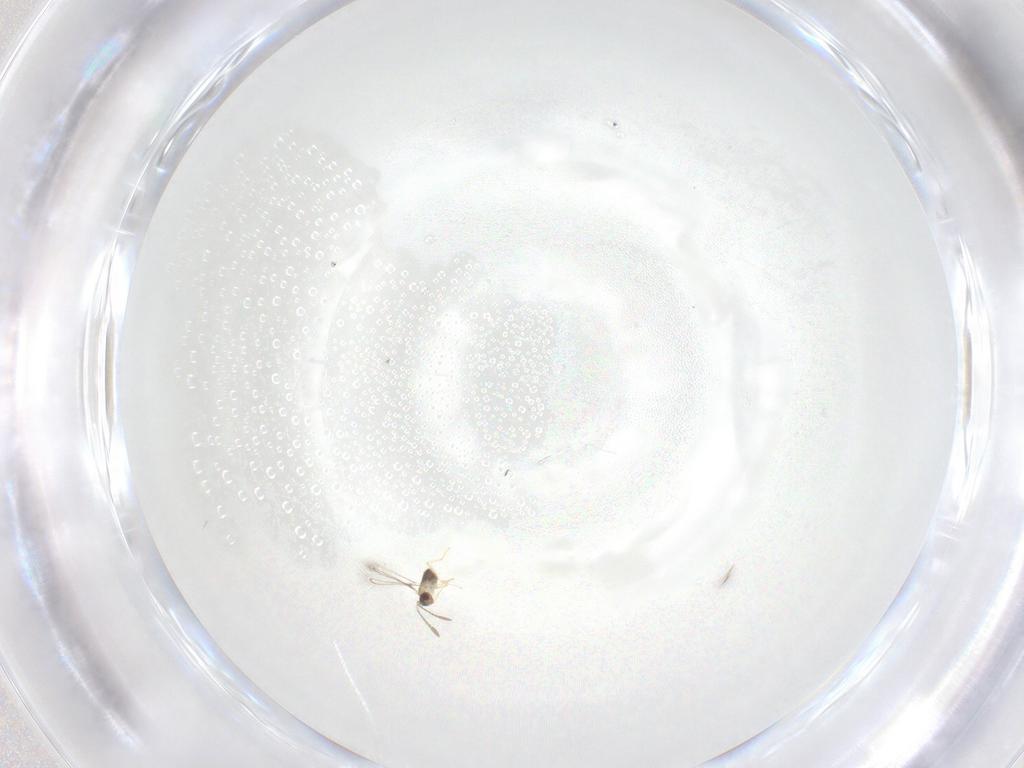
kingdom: Animalia
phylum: Arthropoda
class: Insecta
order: Hymenoptera
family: Mymaridae
